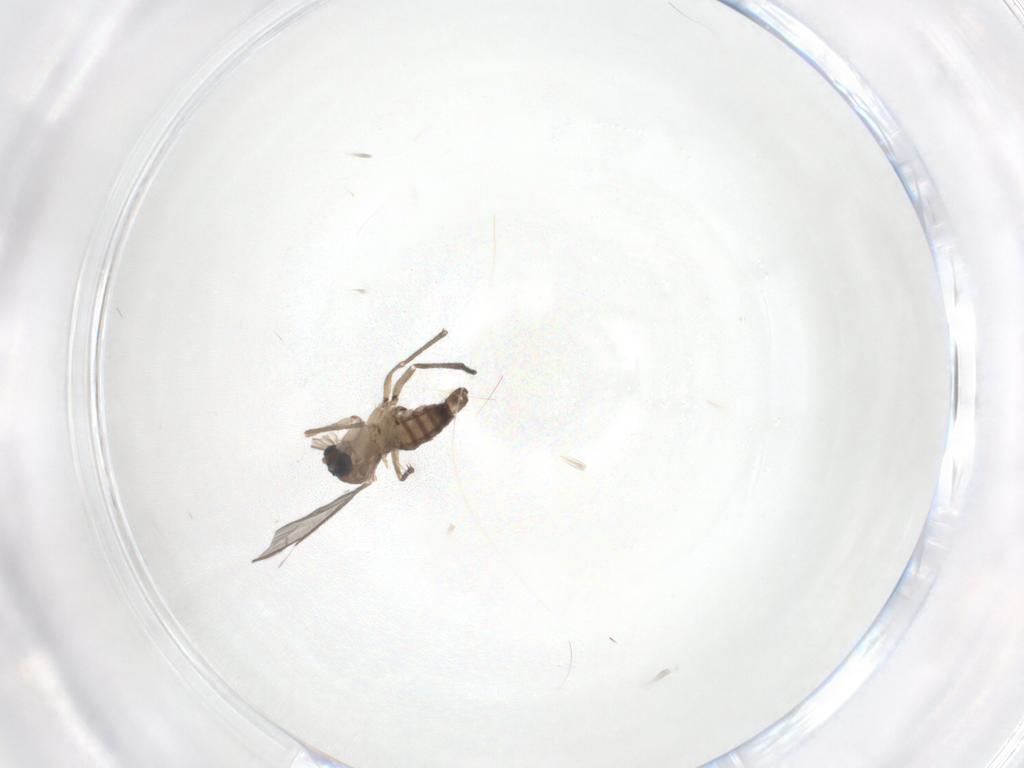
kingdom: Animalia
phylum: Arthropoda
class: Insecta
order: Diptera
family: Sciaridae
